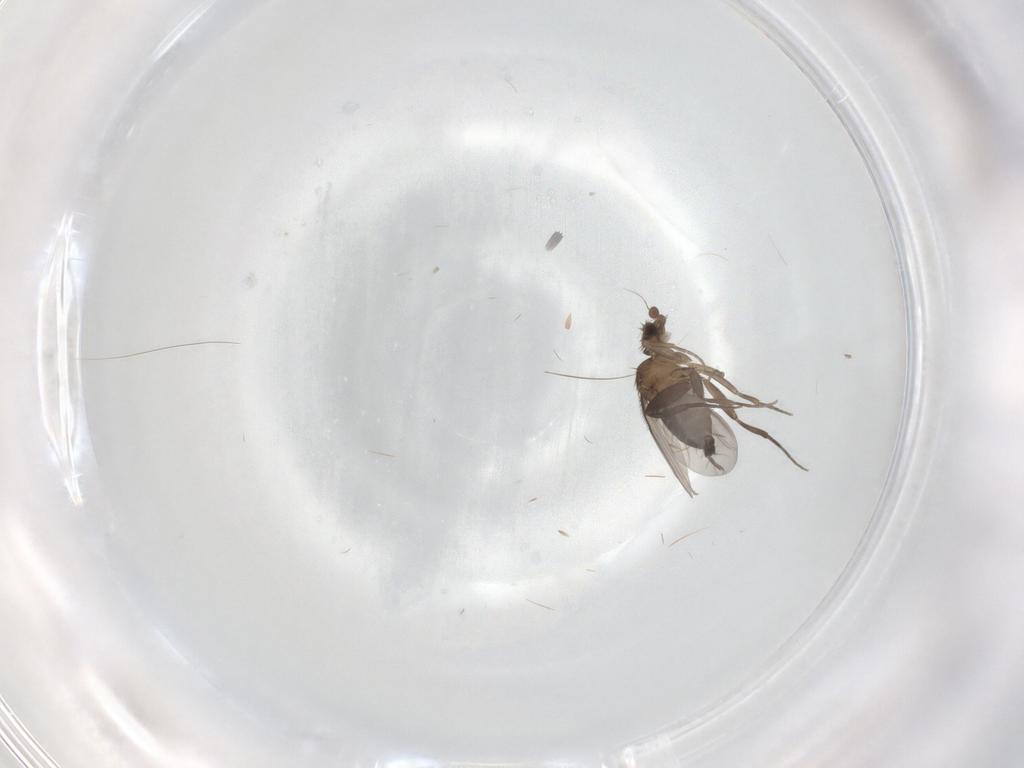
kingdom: Animalia
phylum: Arthropoda
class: Insecta
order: Diptera
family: Phoridae
